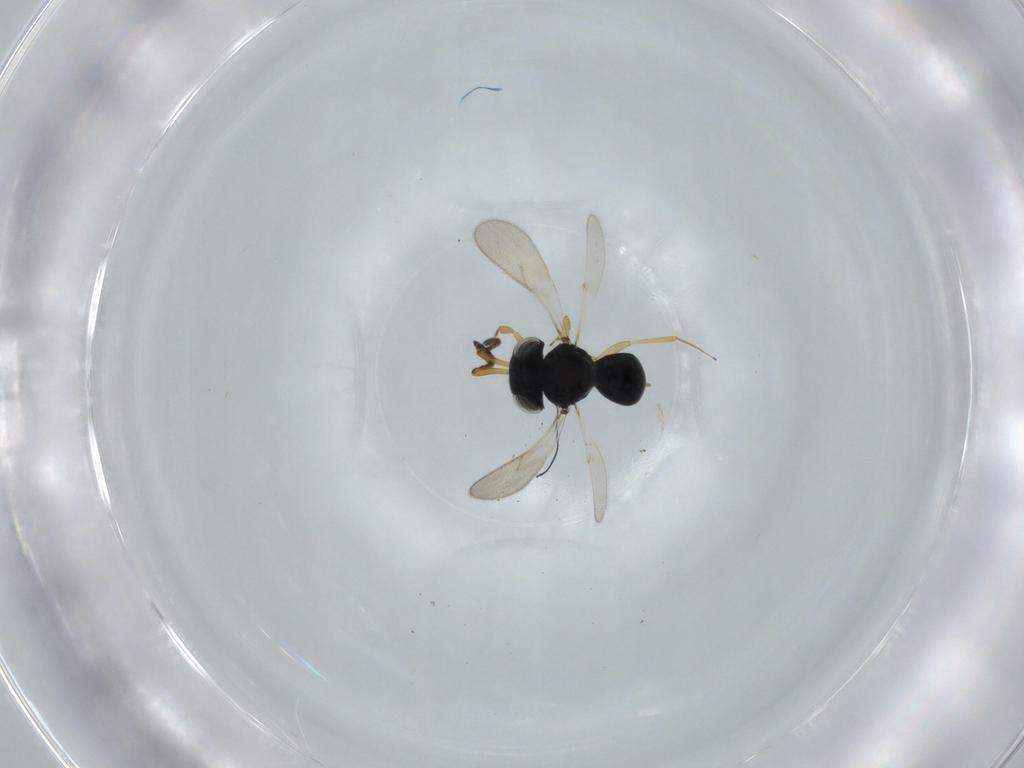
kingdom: Animalia
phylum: Arthropoda
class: Insecta
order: Hymenoptera
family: Scelionidae
